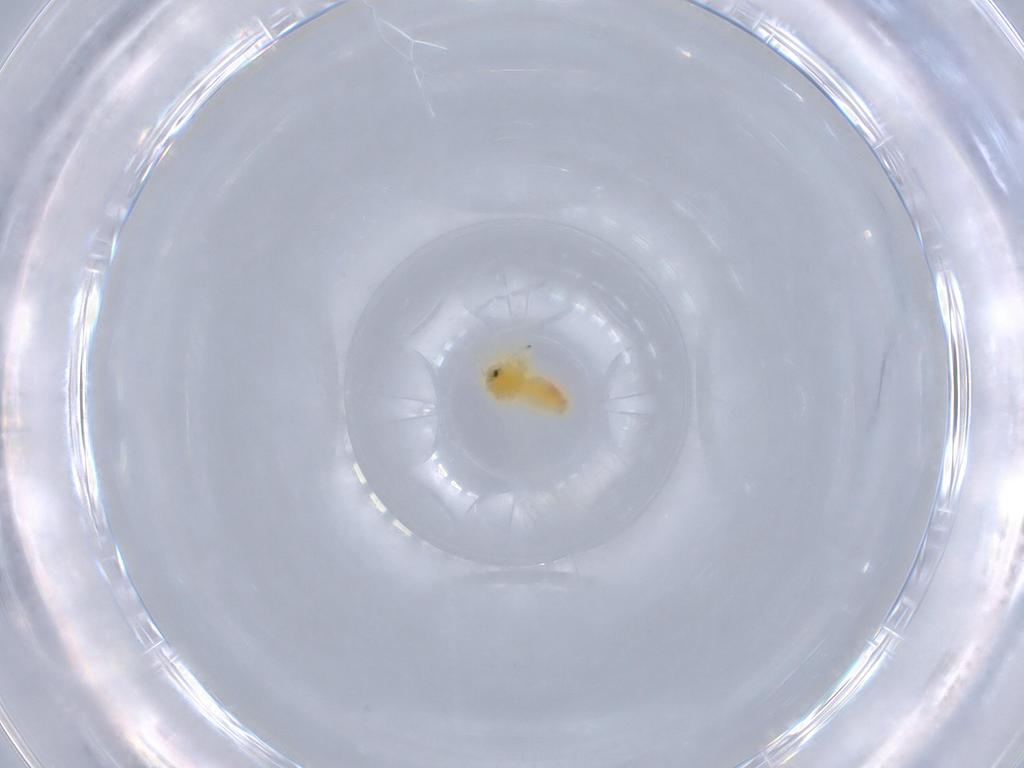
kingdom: Animalia
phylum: Arthropoda
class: Insecta
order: Hemiptera
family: Aleyrodidae
